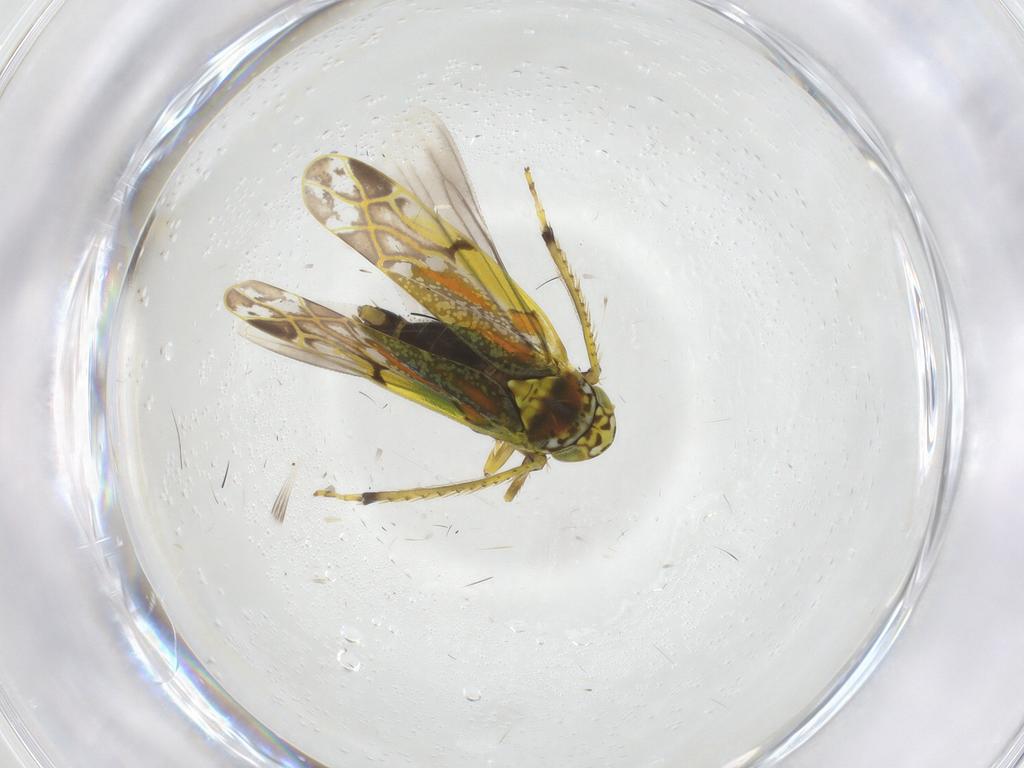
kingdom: Animalia
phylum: Arthropoda
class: Insecta
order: Hemiptera
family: Cicadellidae
